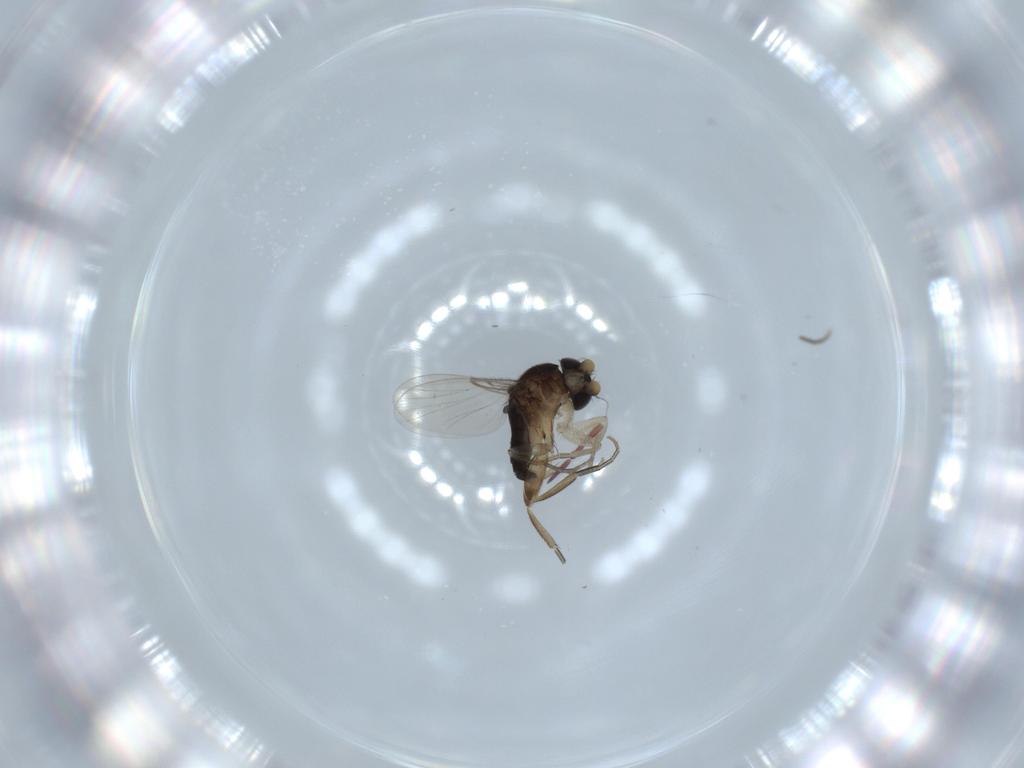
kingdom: Animalia
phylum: Arthropoda
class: Insecta
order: Diptera
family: Phoridae
